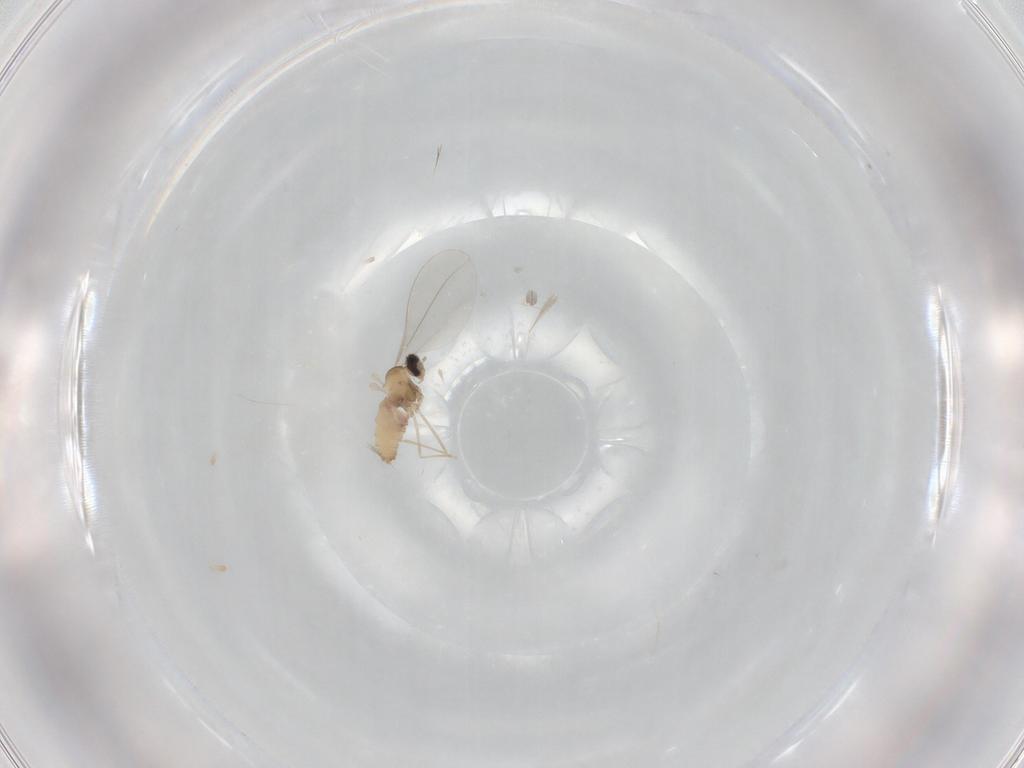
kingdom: Animalia
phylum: Arthropoda
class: Insecta
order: Diptera
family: Cecidomyiidae
